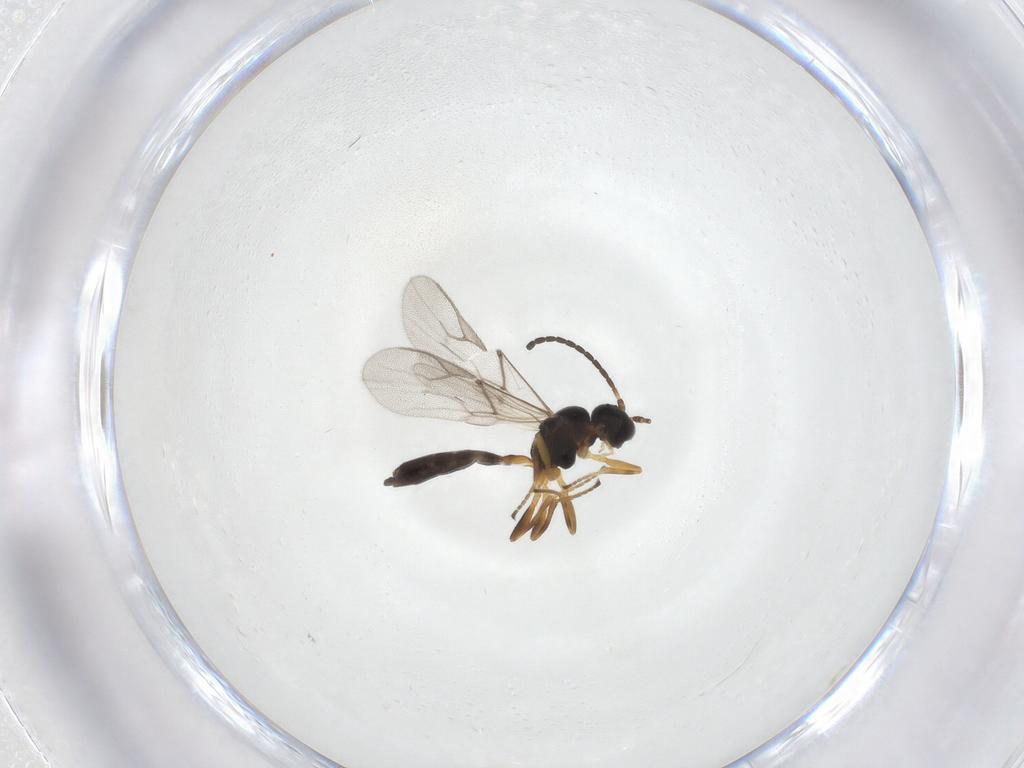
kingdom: Animalia
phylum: Arthropoda
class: Insecta
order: Hymenoptera
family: Braconidae
